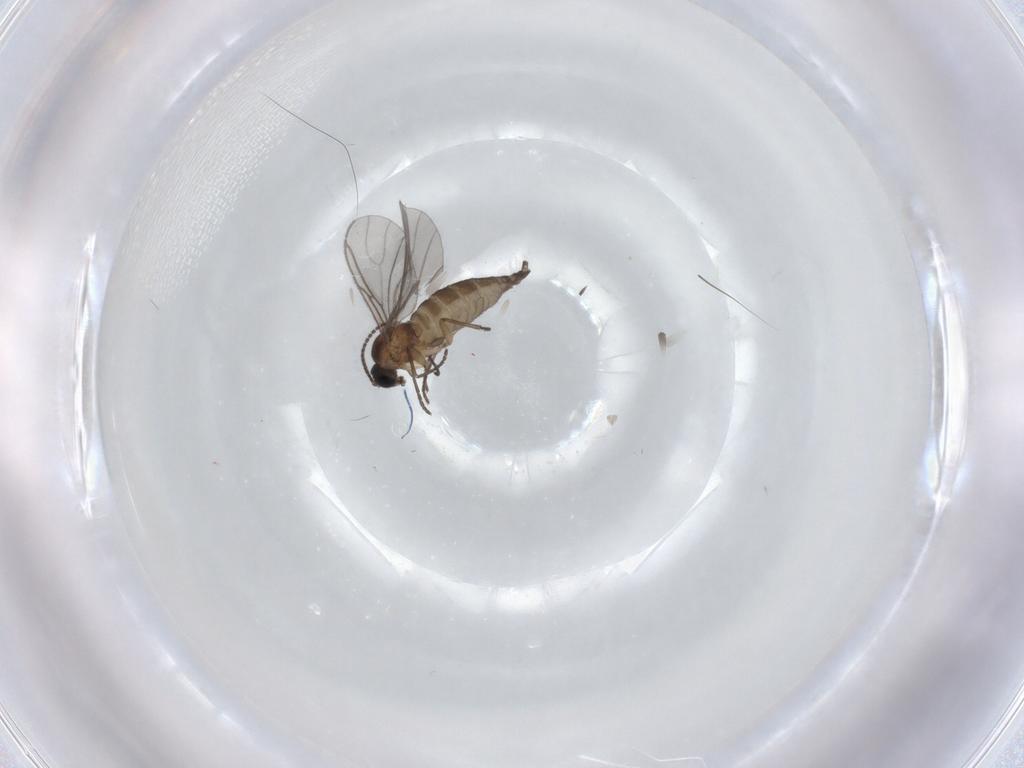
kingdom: Animalia
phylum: Arthropoda
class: Insecta
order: Diptera
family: Sciaridae
